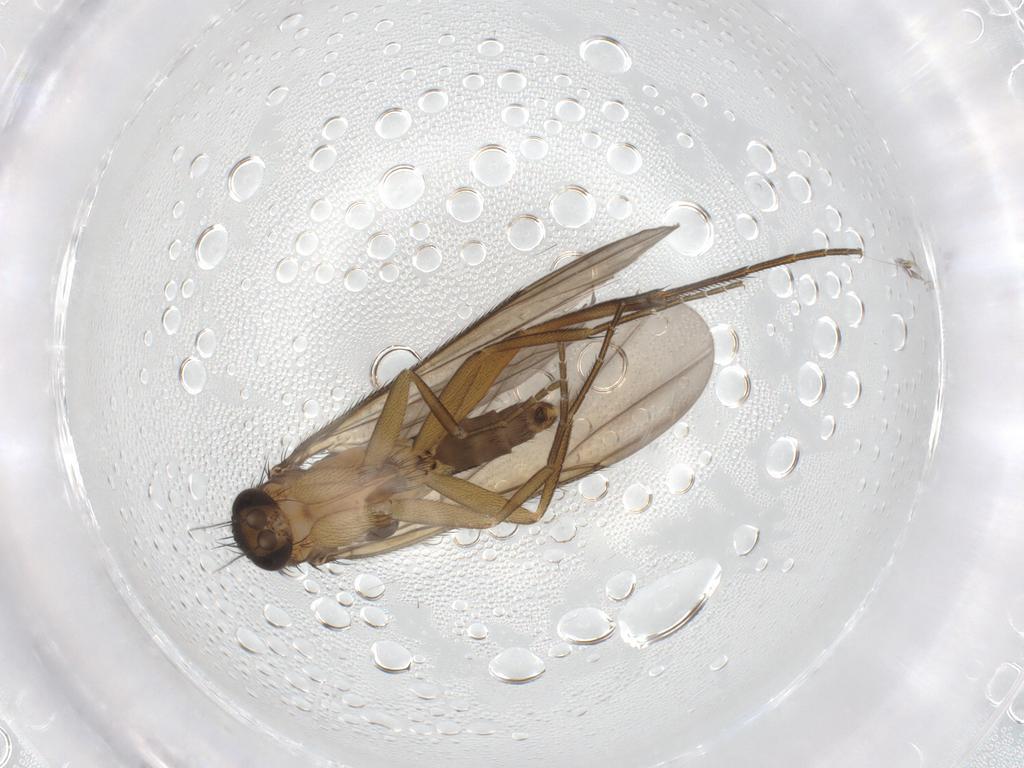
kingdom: Animalia
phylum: Arthropoda
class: Insecta
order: Diptera
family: Phoridae
